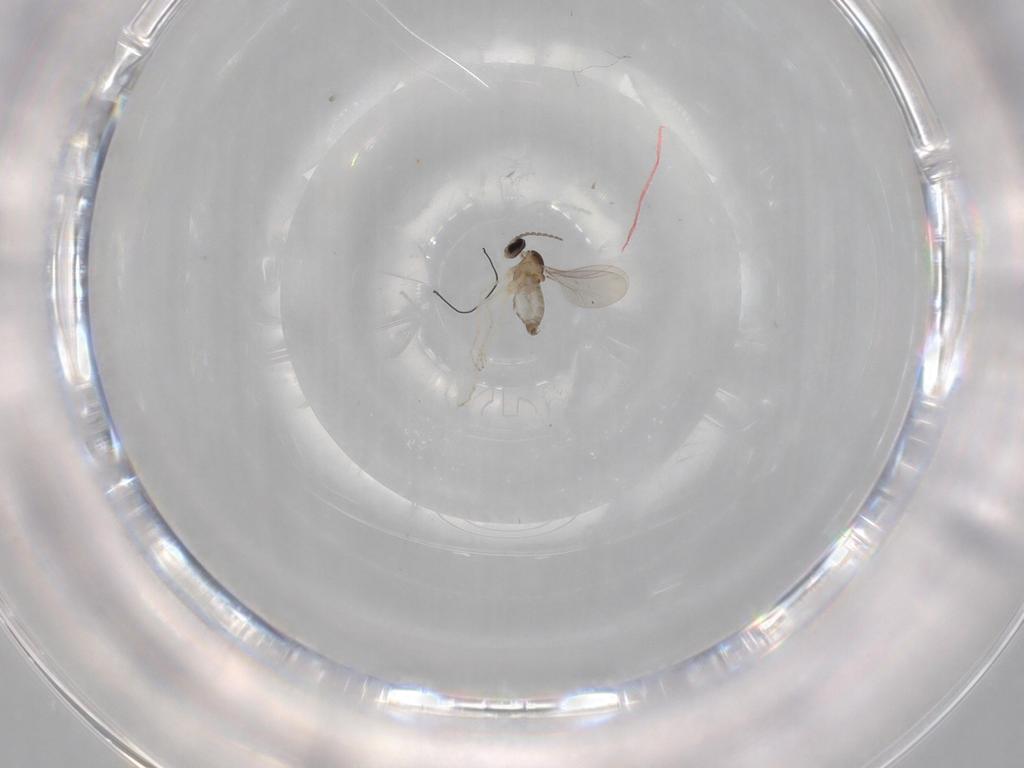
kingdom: Animalia
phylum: Arthropoda
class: Insecta
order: Diptera
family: Cecidomyiidae
